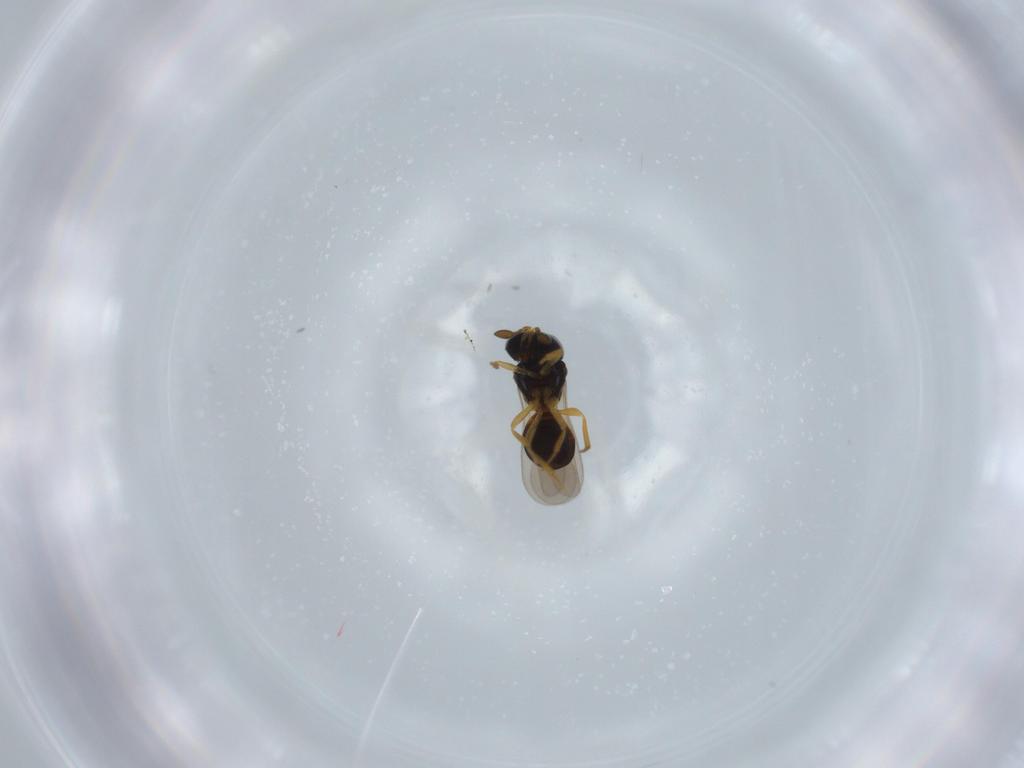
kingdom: Animalia
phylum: Arthropoda
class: Insecta
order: Hymenoptera
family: Scelionidae
